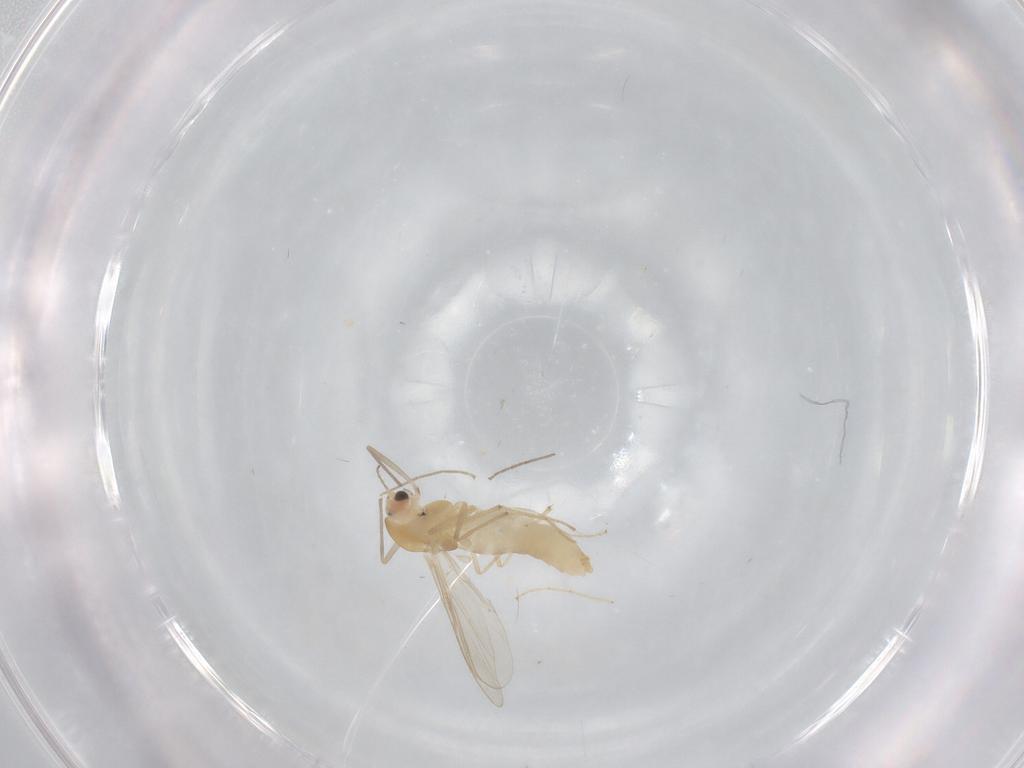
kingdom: Animalia
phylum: Arthropoda
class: Insecta
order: Diptera
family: Chironomidae
